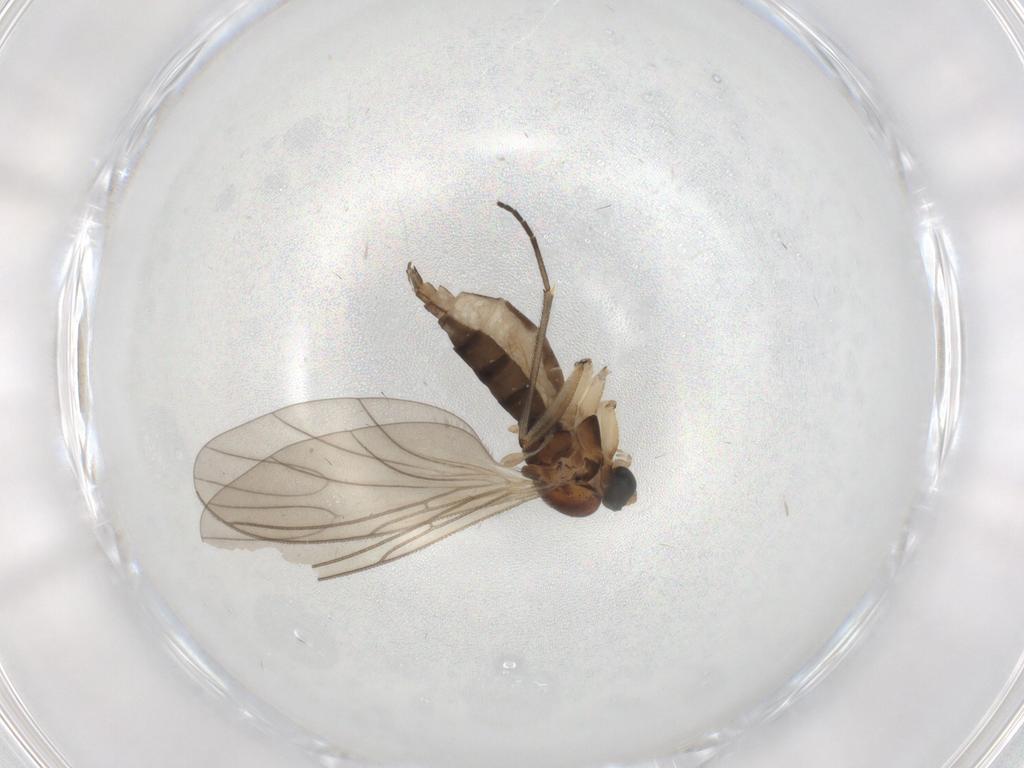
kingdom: Animalia
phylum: Arthropoda
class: Insecta
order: Diptera
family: Sciaridae
